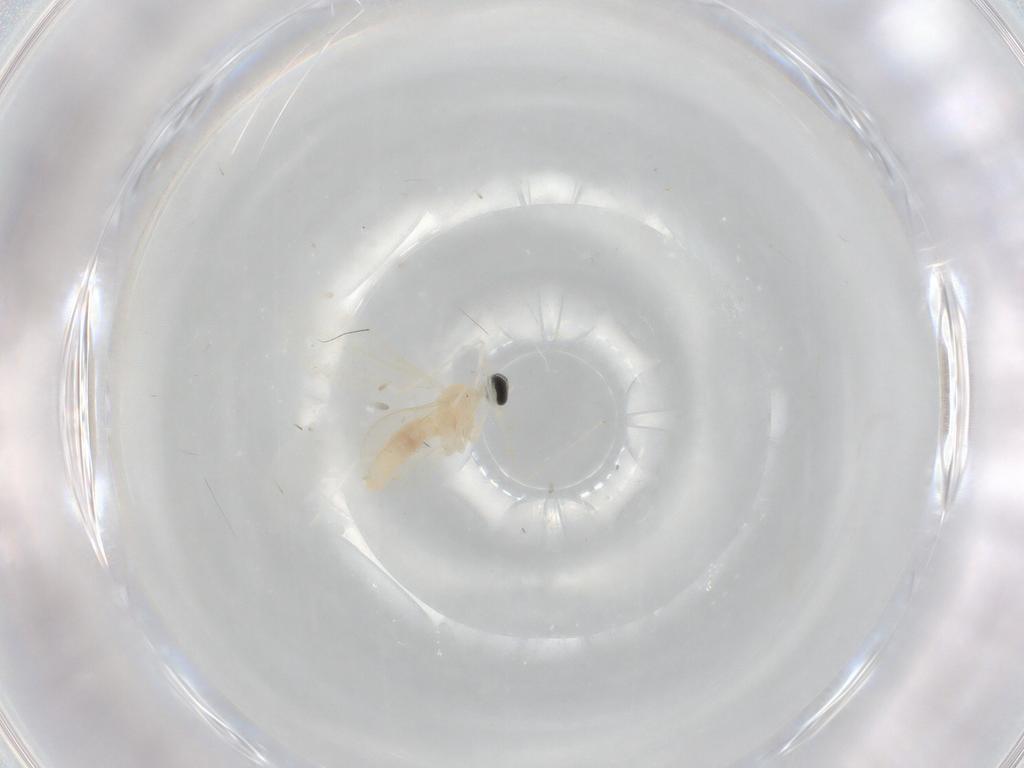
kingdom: Animalia
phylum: Arthropoda
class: Insecta
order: Diptera
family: Cecidomyiidae
